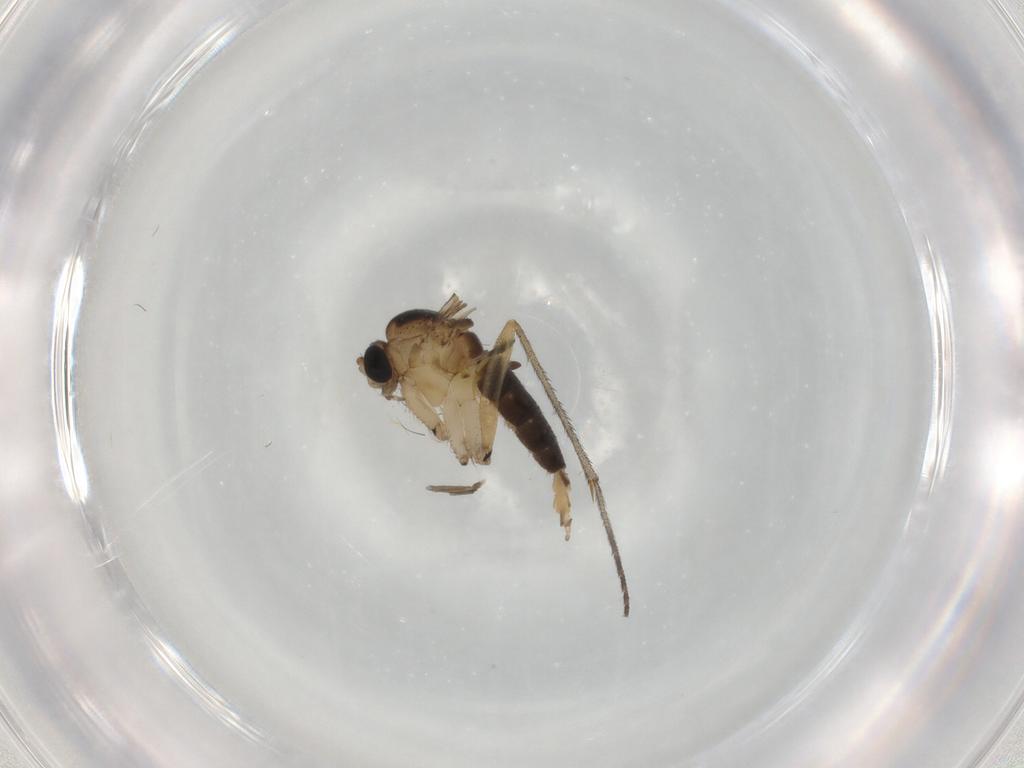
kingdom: Animalia
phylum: Arthropoda
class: Insecta
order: Diptera
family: Sciaridae
